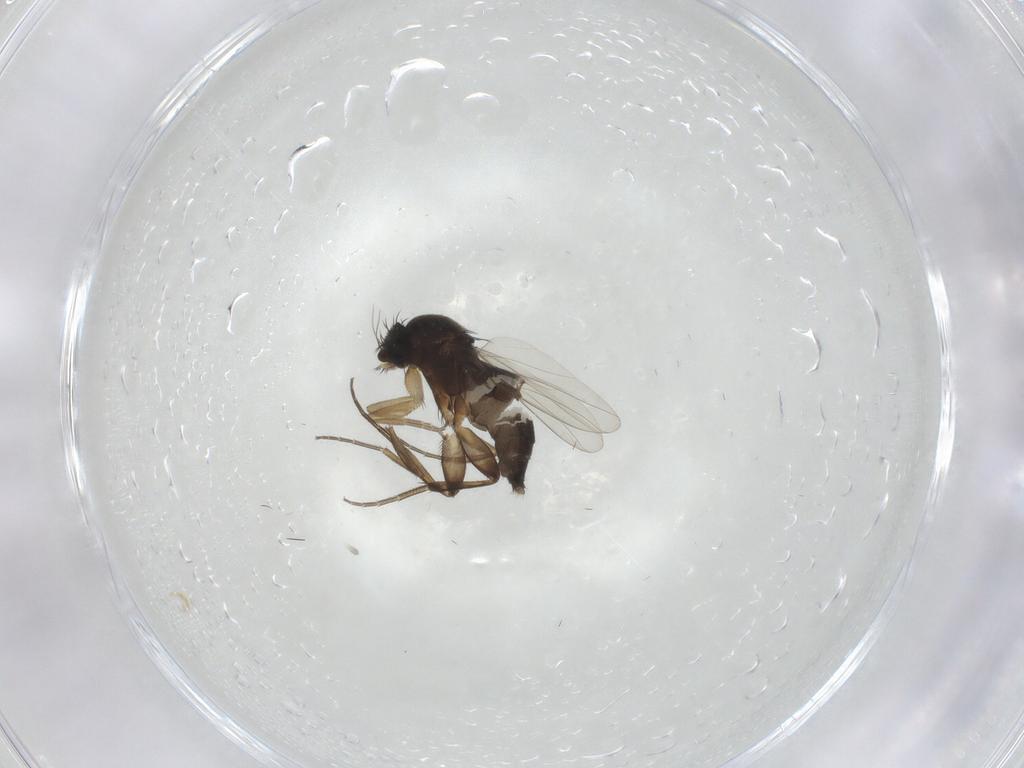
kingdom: Animalia
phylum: Arthropoda
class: Insecta
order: Diptera
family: Phoridae
